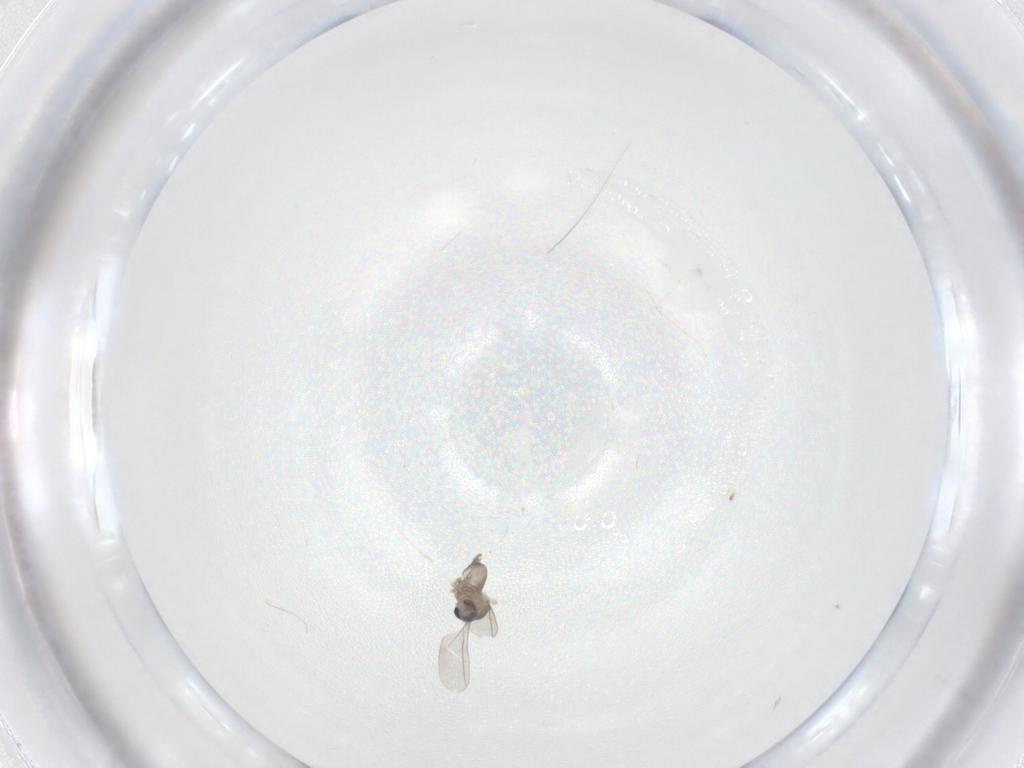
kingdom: Animalia
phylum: Arthropoda
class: Insecta
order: Diptera
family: Cecidomyiidae
